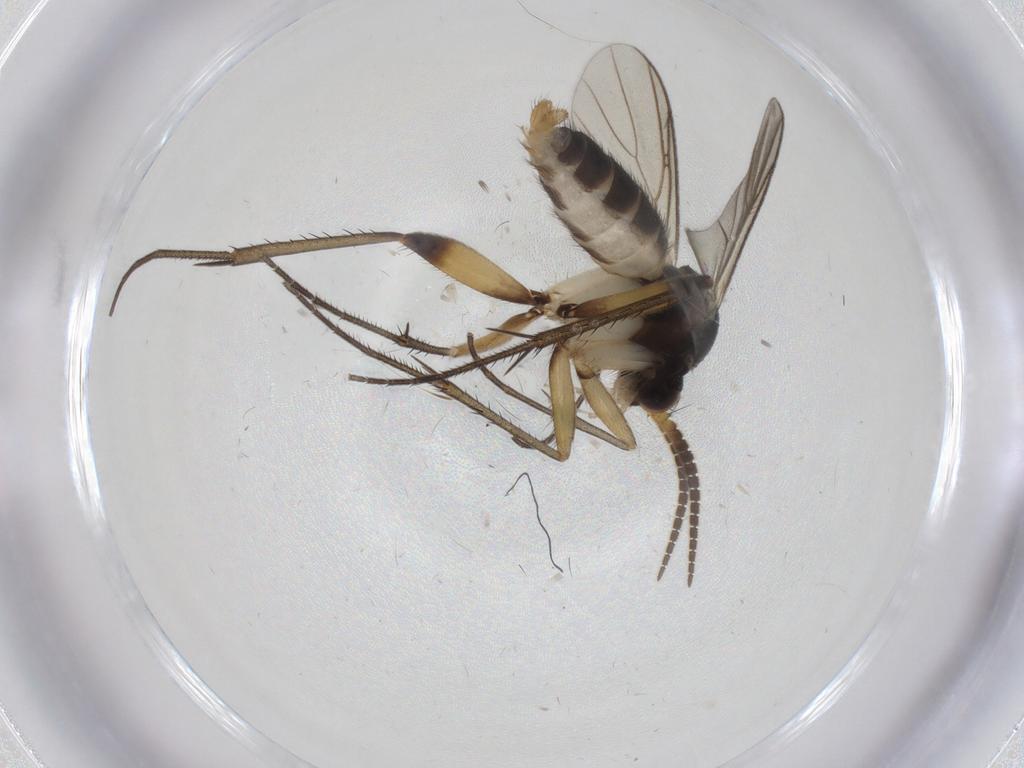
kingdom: Animalia
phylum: Arthropoda
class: Insecta
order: Diptera
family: Mycetophilidae
